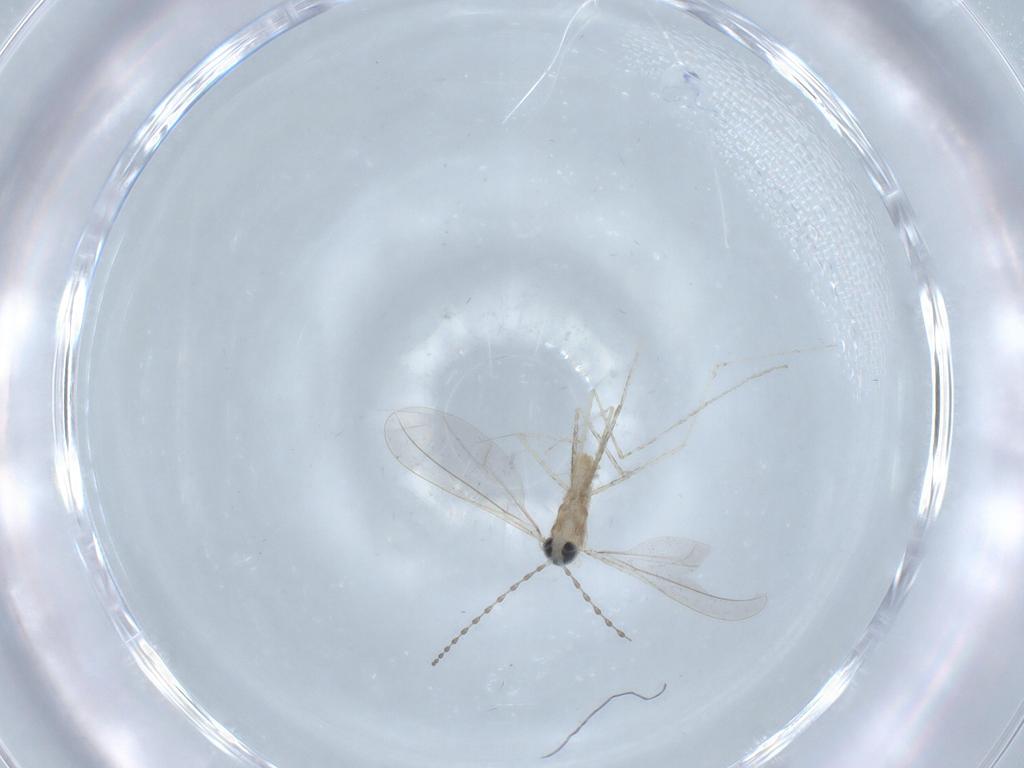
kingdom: Animalia
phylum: Arthropoda
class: Insecta
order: Diptera
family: Cecidomyiidae
